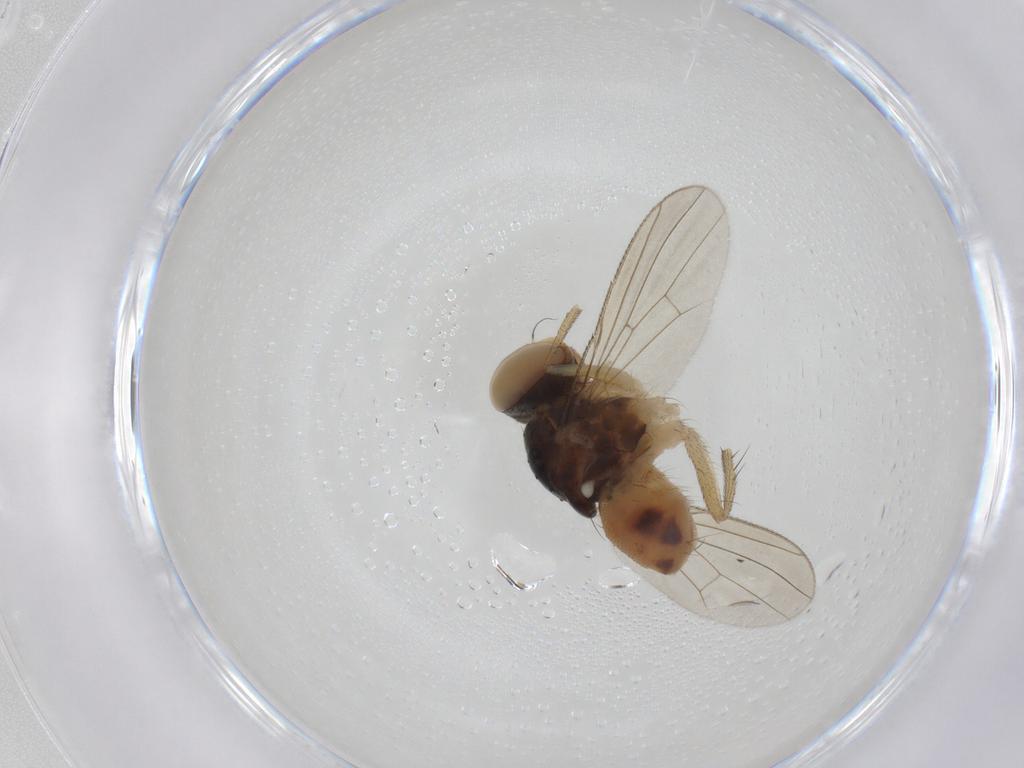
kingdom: Animalia
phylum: Arthropoda
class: Insecta
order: Diptera
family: Muscidae
